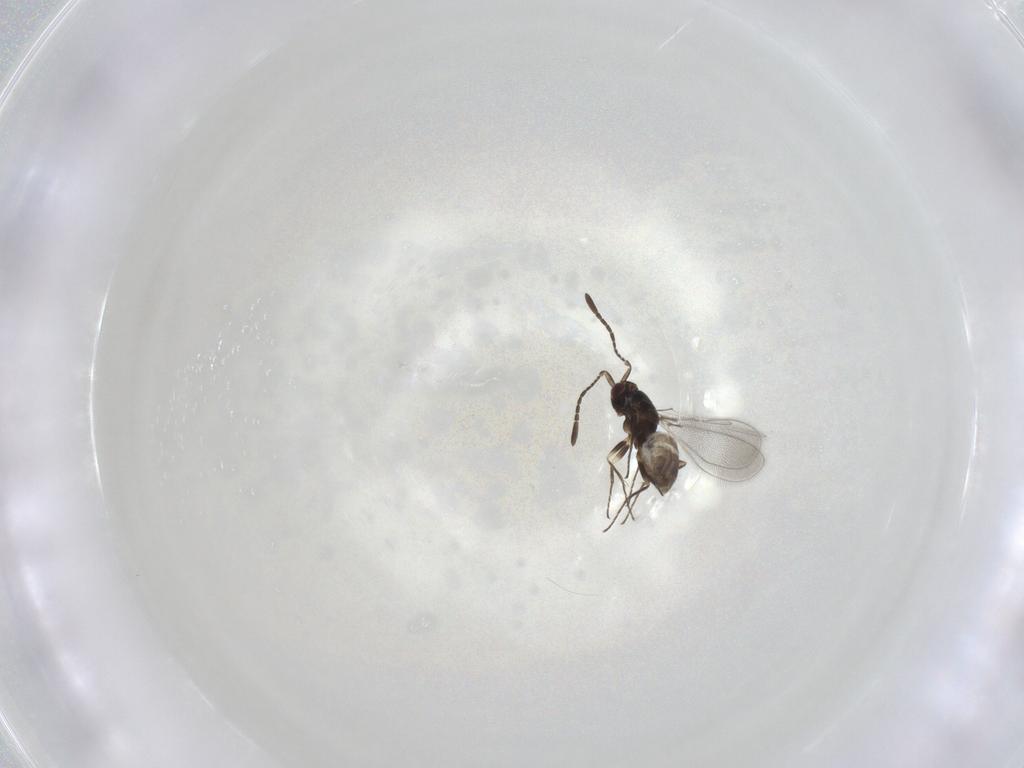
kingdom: Animalia
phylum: Arthropoda
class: Insecta
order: Hymenoptera
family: Mymaridae
